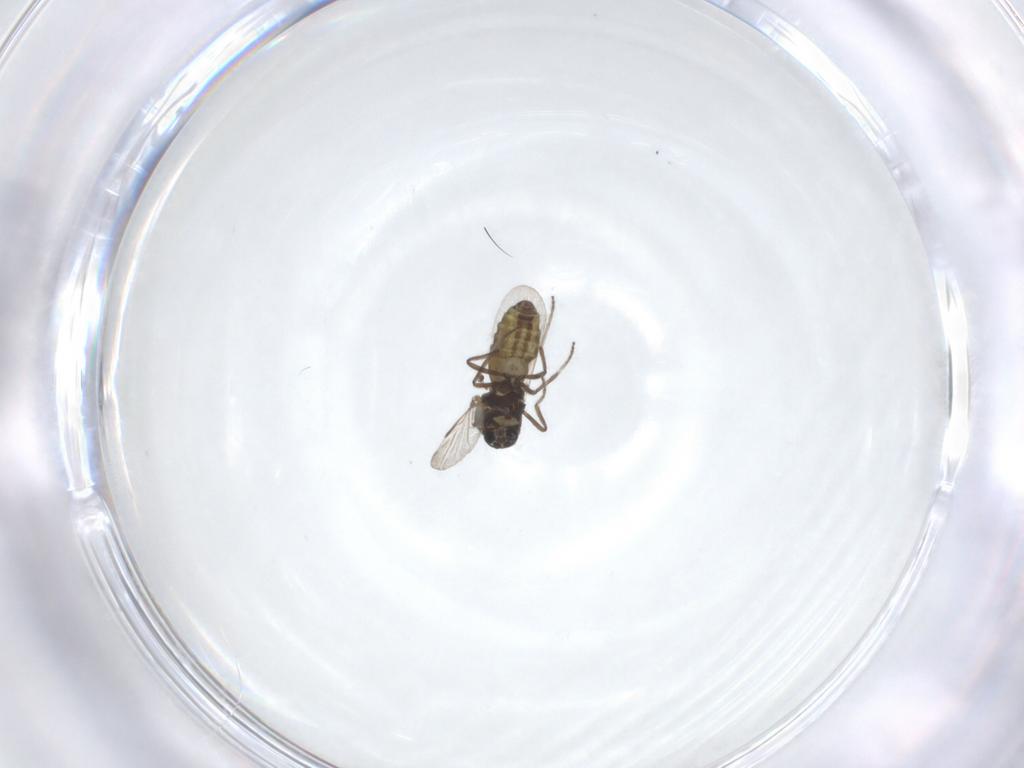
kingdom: Animalia
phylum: Arthropoda
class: Insecta
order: Diptera
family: Ceratopogonidae
